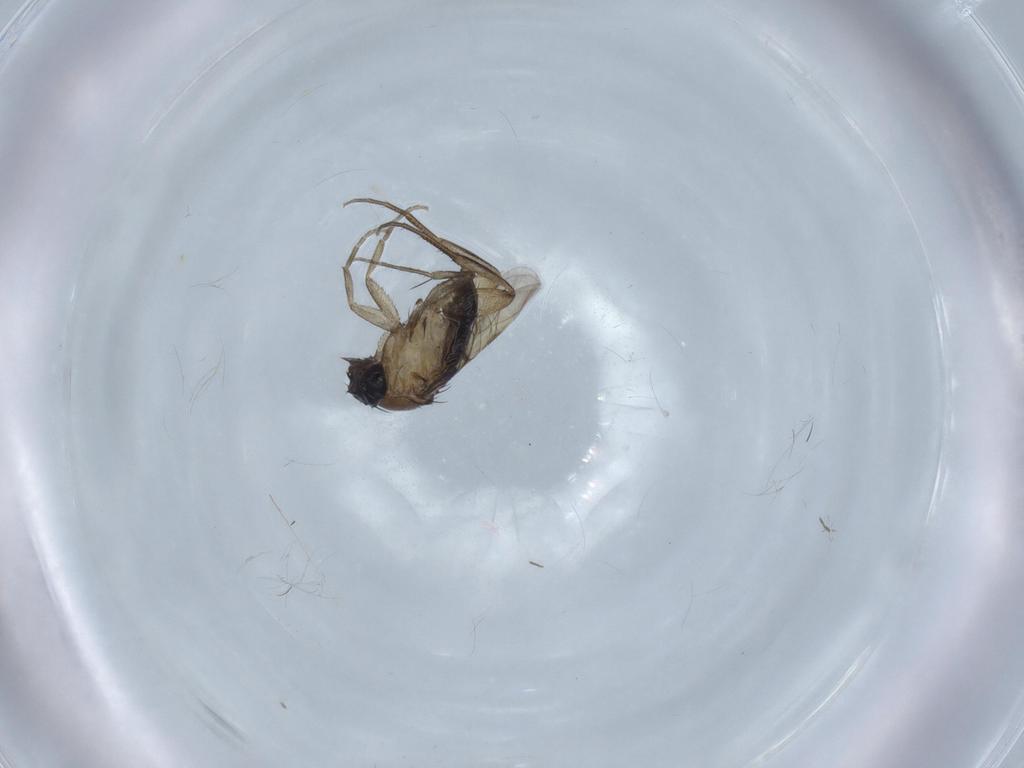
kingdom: Animalia
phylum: Arthropoda
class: Insecta
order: Diptera
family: Phoridae
